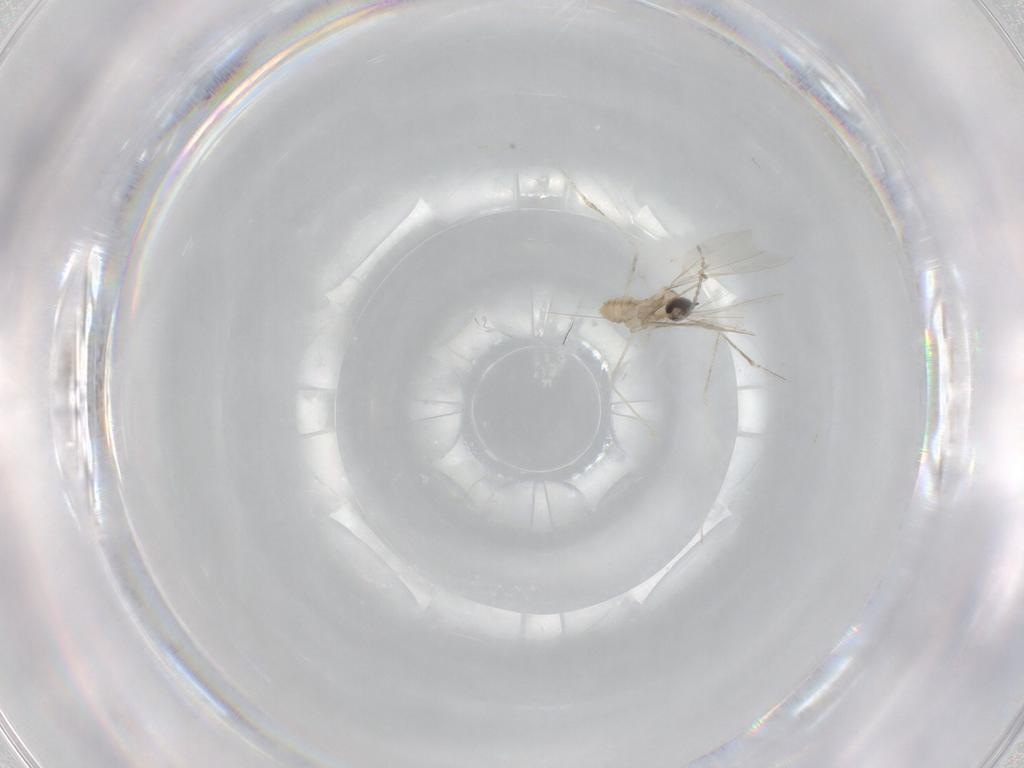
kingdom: Animalia
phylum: Arthropoda
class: Insecta
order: Diptera
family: Cecidomyiidae
